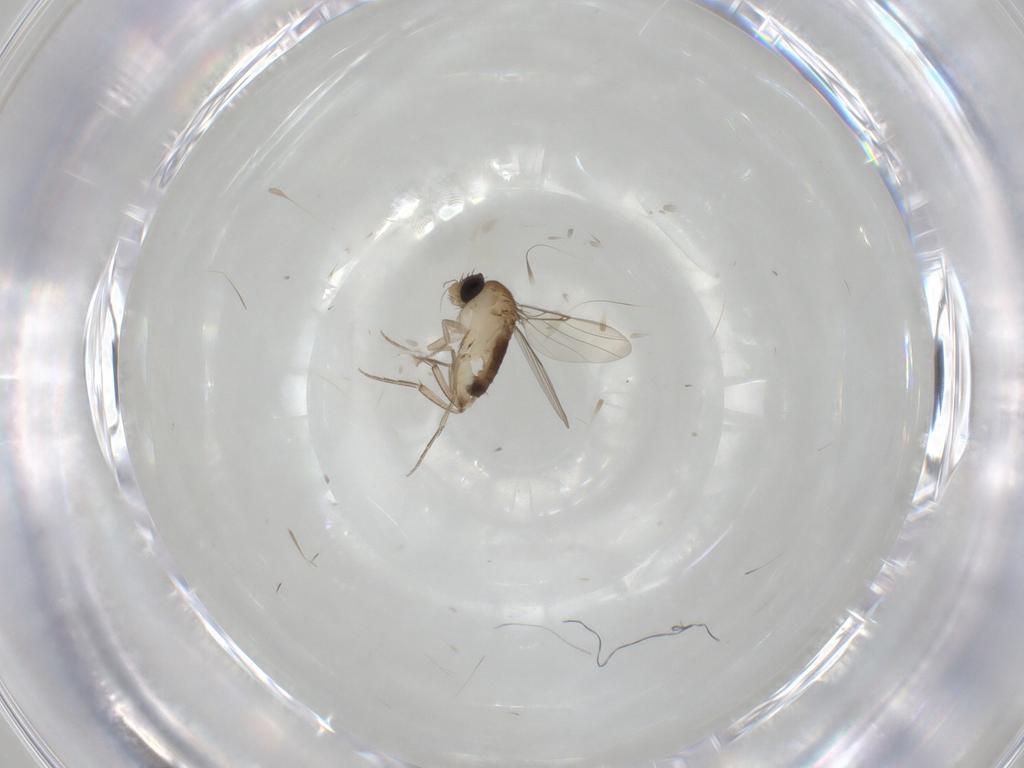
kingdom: Animalia
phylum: Arthropoda
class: Insecta
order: Diptera
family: Phoridae
